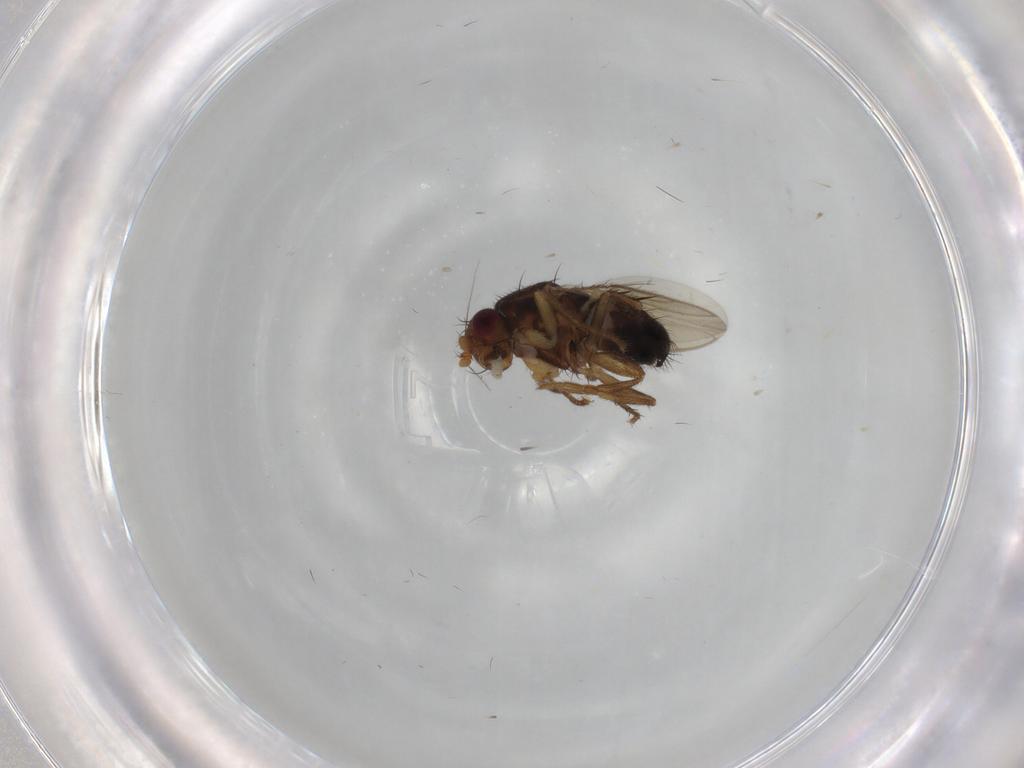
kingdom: Animalia
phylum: Arthropoda
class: Insecta
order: Diptera
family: Sphaeroceridae
